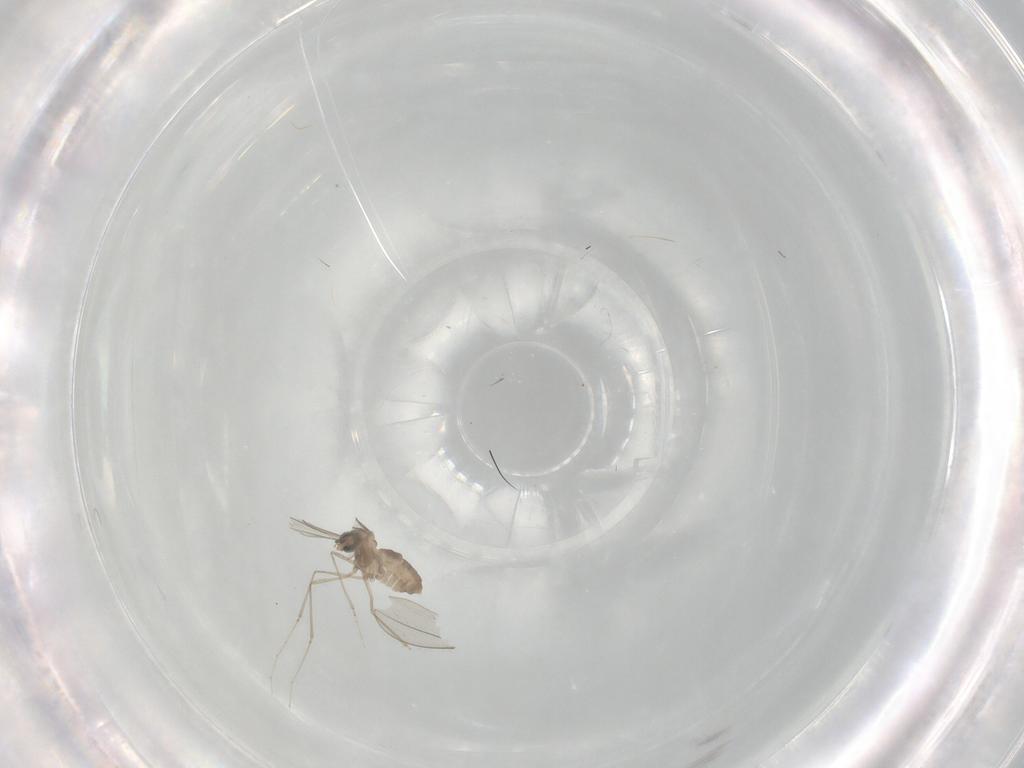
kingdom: Animalia
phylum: Arthropoda
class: Insecta
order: Diptera
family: Cecidomyiidae
